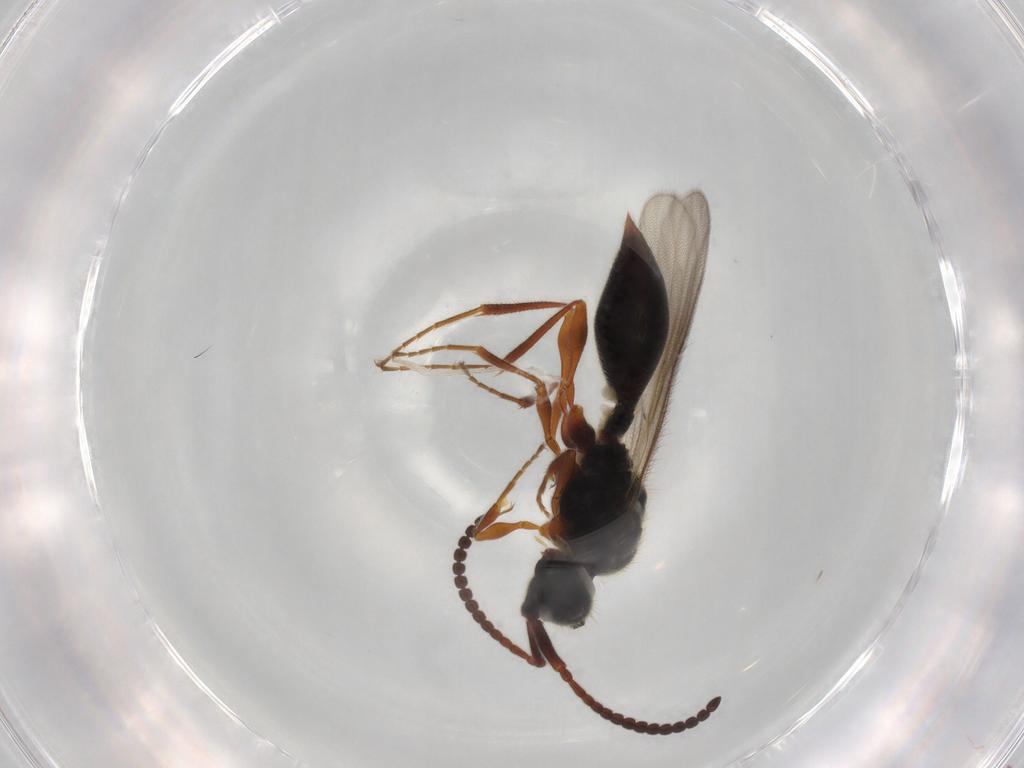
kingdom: Animalia
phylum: Arthropoda
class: Insecta
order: Hymenoptera
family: Diapriidae
